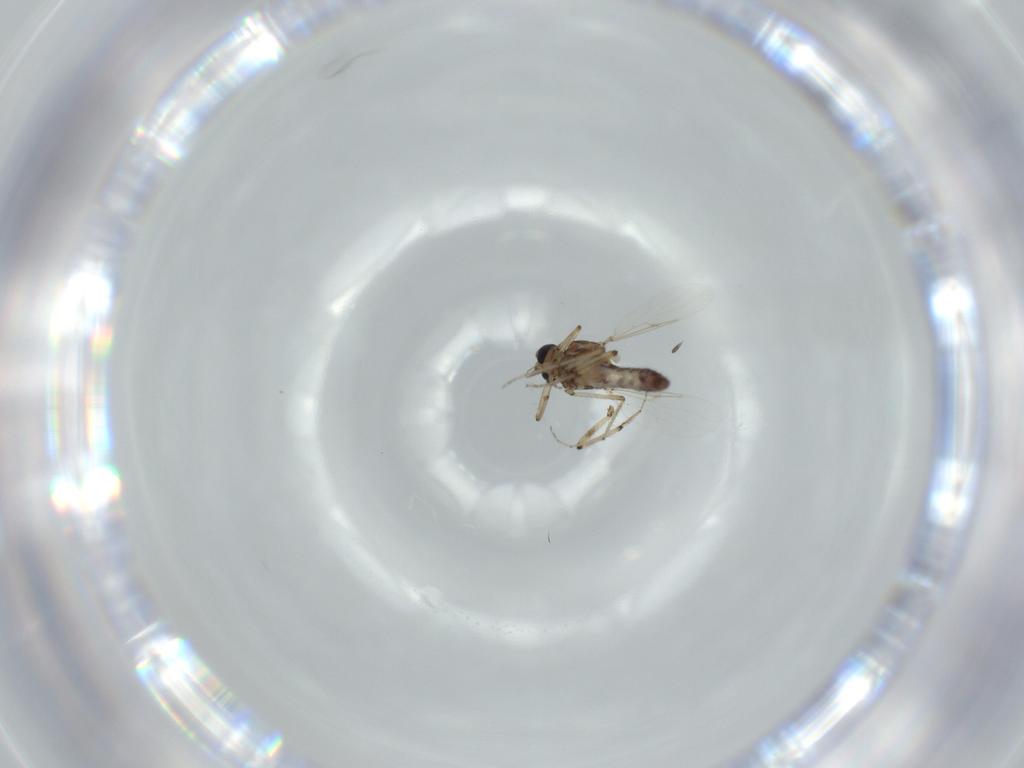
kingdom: Animalia
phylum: Arthropoda
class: Insecta
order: Diptera
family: Ceratopogonidae
